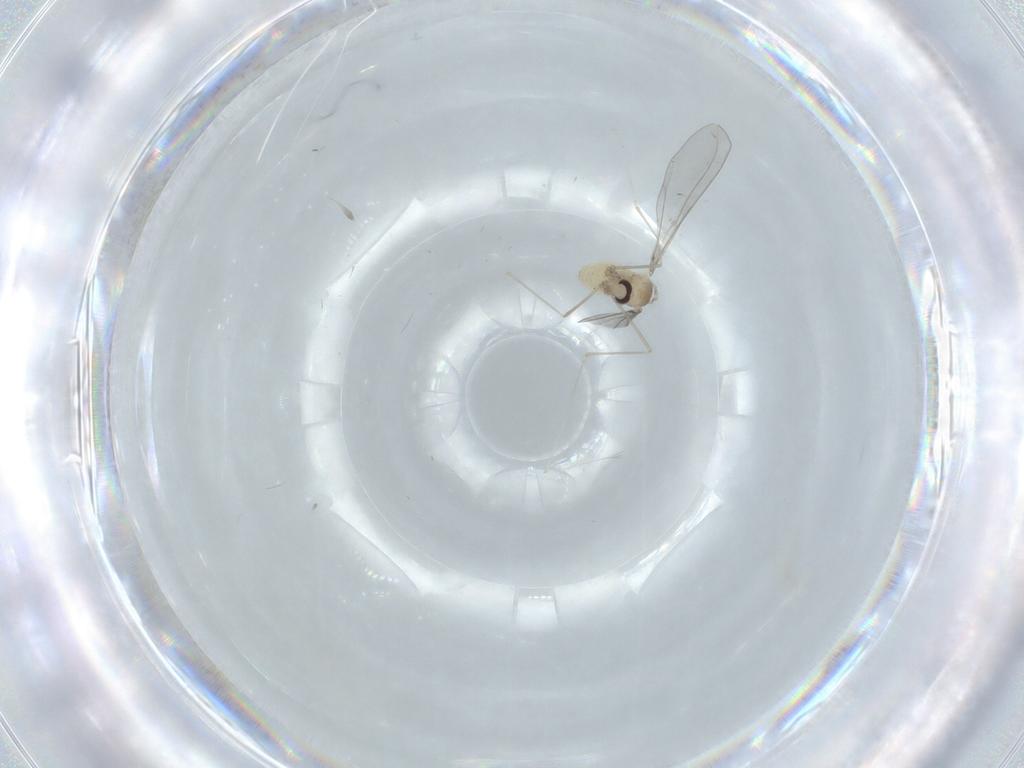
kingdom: Animalia
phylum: Arthropoda
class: Insecta
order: Diptera
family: Chironomidae
